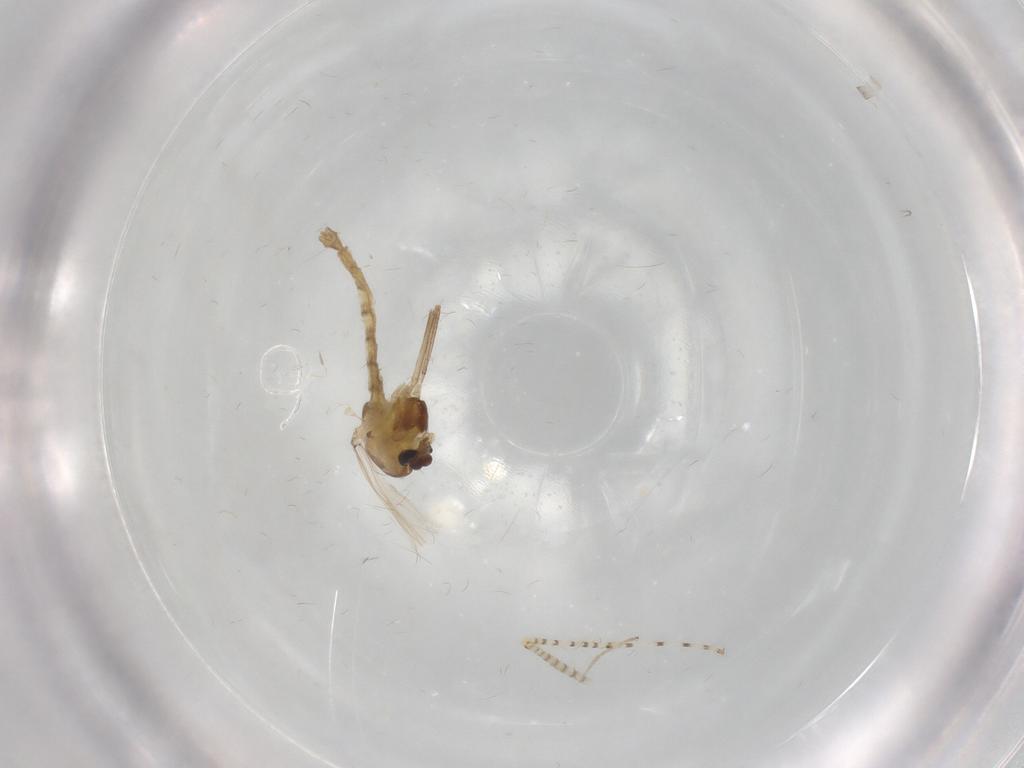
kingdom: Animalia
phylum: Arthropoda
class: Insecta
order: Diptera
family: Chironomidae
